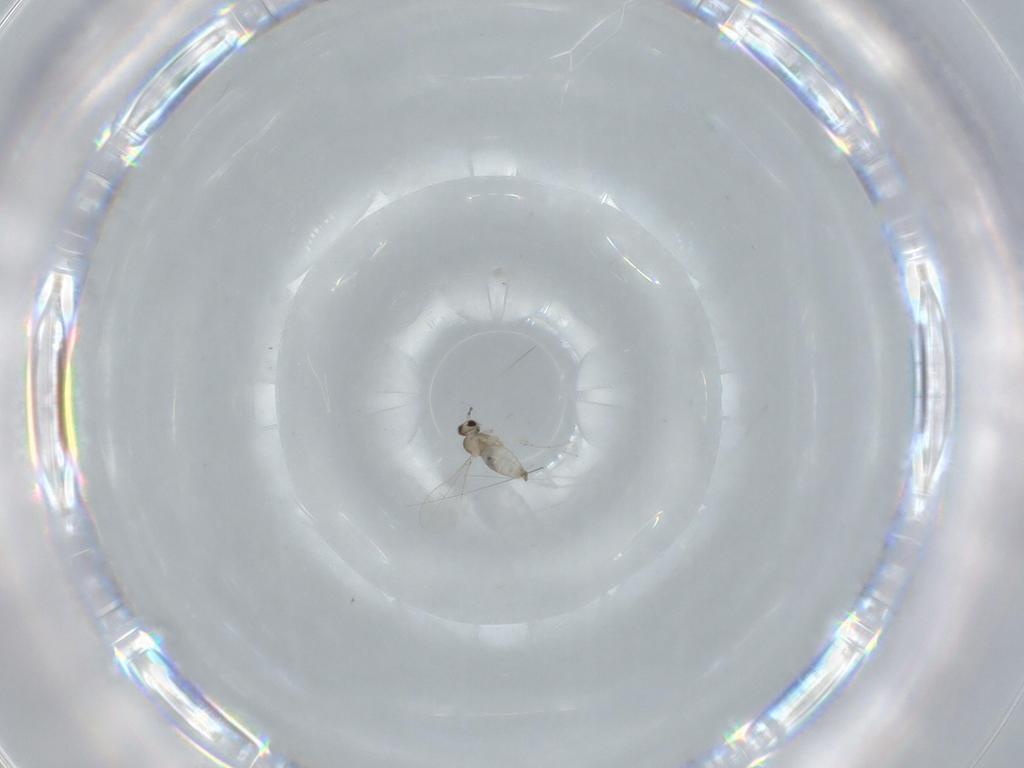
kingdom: Animalia
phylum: Arthropoda
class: Insecta
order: Diptera
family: Cecidomyiidae
